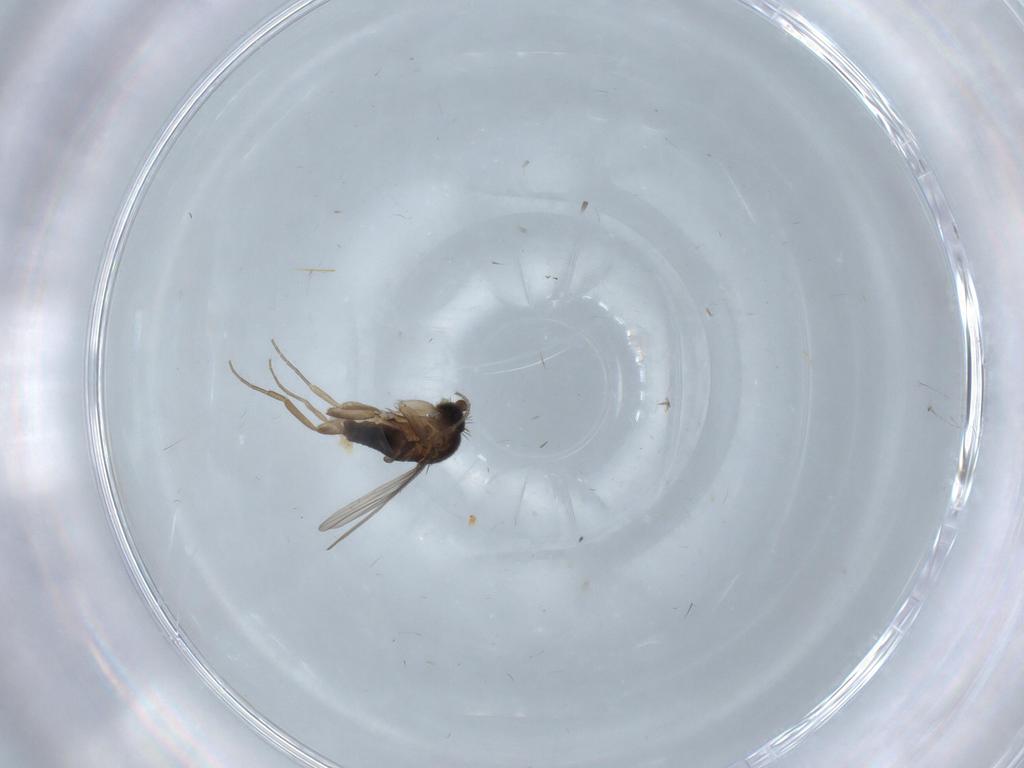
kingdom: Animalia
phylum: Arthropoda
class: Insecta
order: Diptera
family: Phoridae
